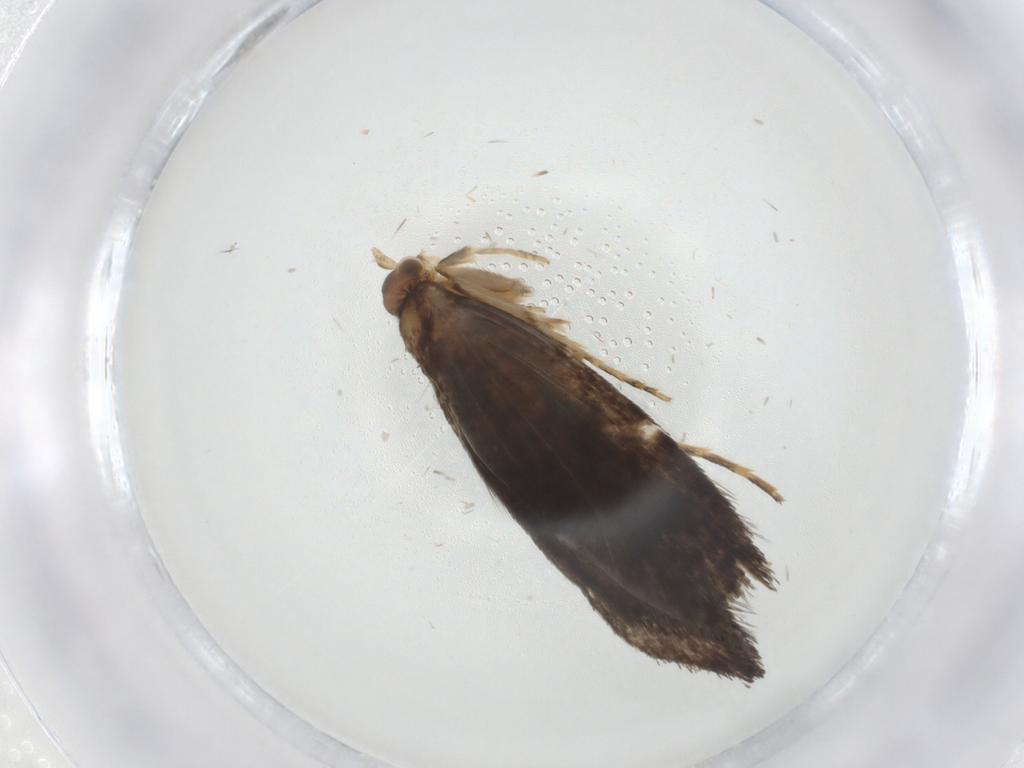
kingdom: Animalia
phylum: Arthropoda
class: Insecta
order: Lepidoptera
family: Tineidae
